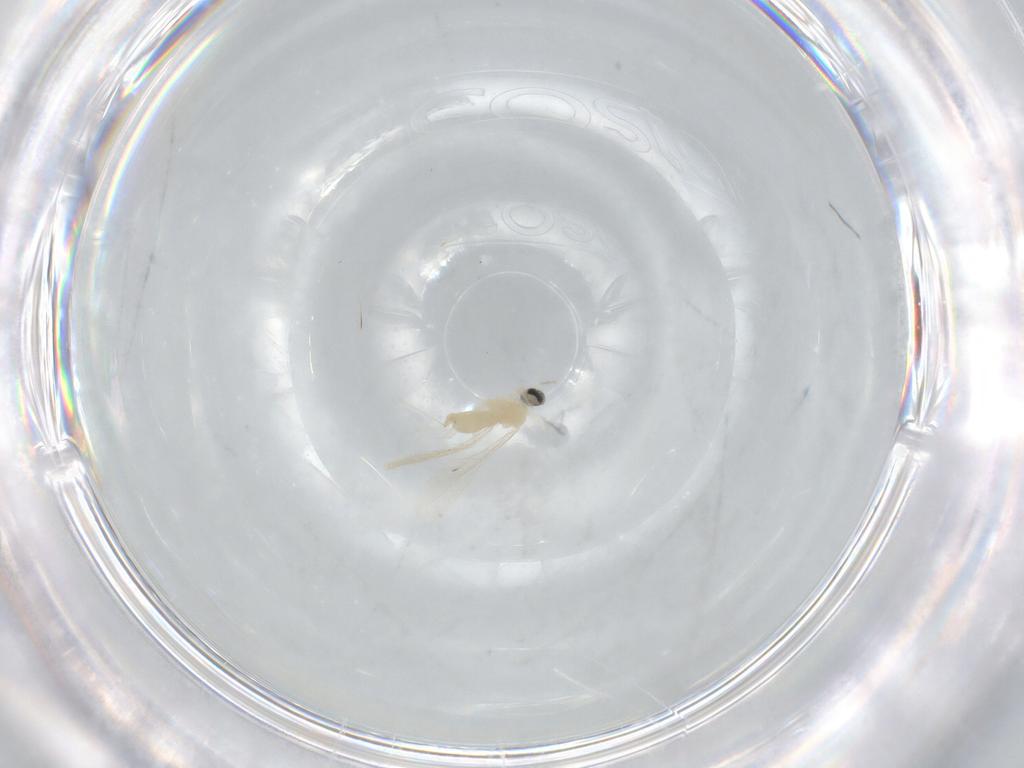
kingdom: Animalia
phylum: Arthropoda
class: Insecta
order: Diptera
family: Cecidomyiidae
